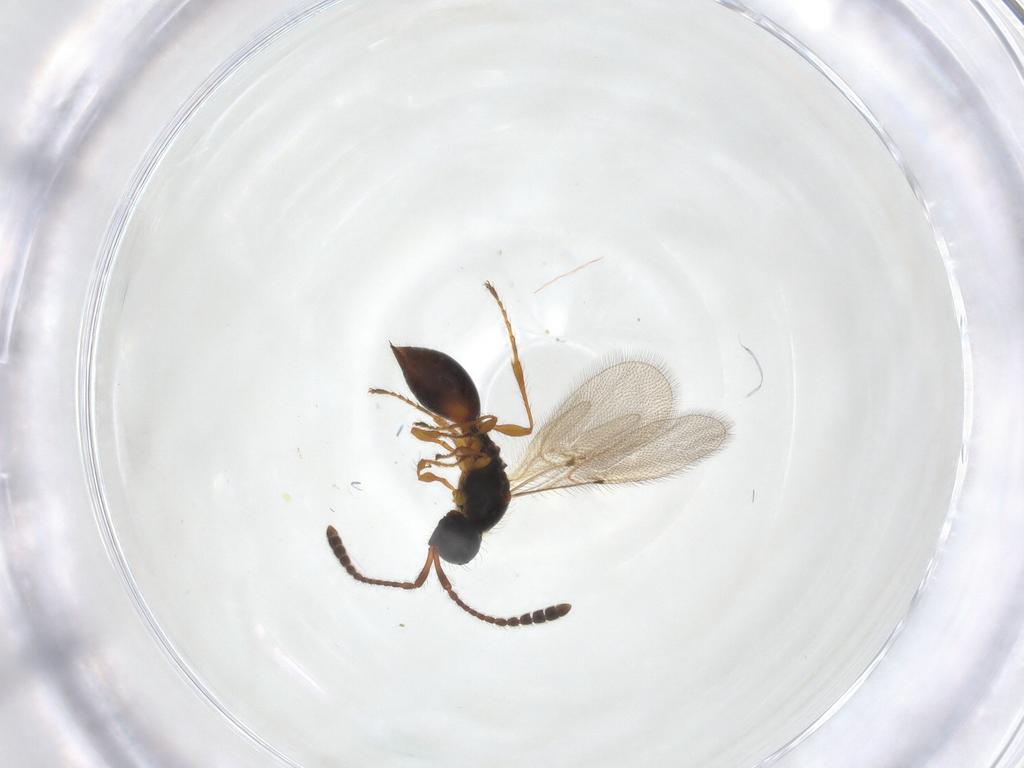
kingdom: Animalia
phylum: Arthropoda
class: Insecta
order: Hymenoptera
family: Diapriidae
